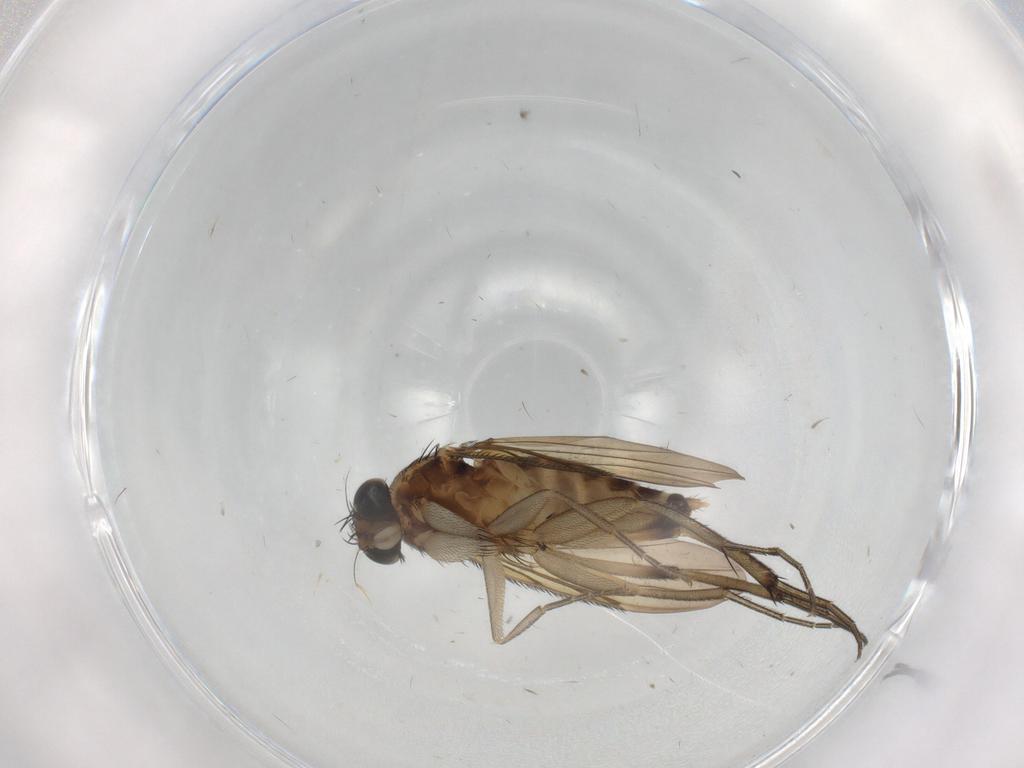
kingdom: Animalia
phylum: Arthropoda
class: Insecta
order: Diptera
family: Phoridae
